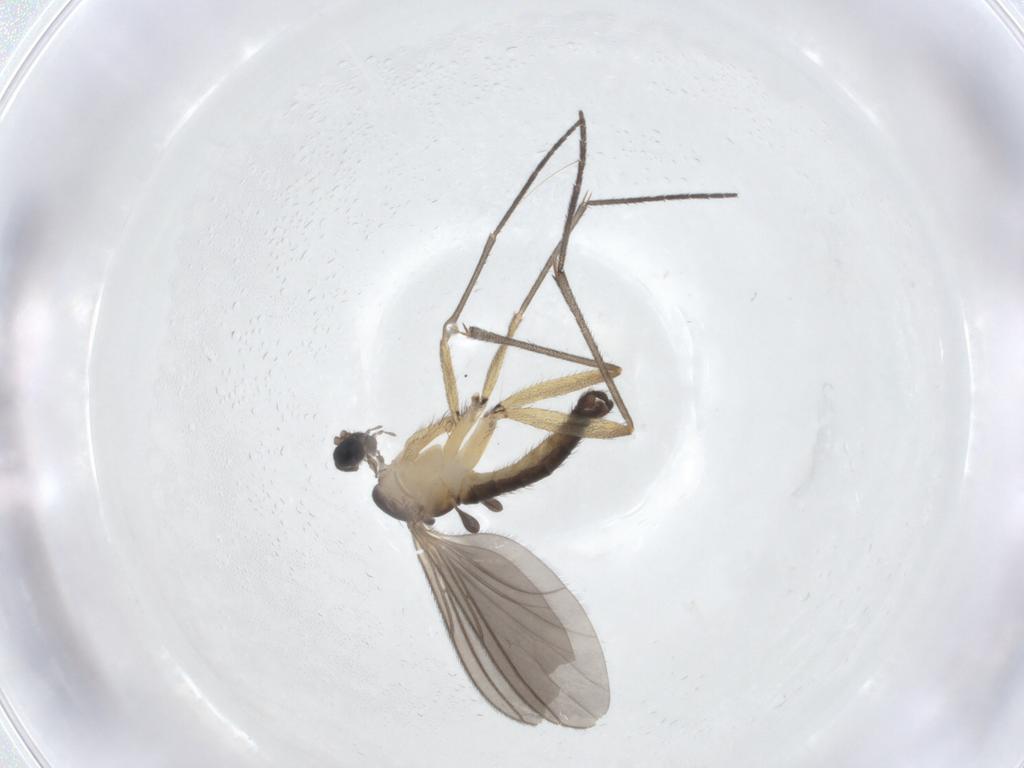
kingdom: Animalia
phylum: Arthropoda
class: Insecta
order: Diptera
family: Sciaridae
